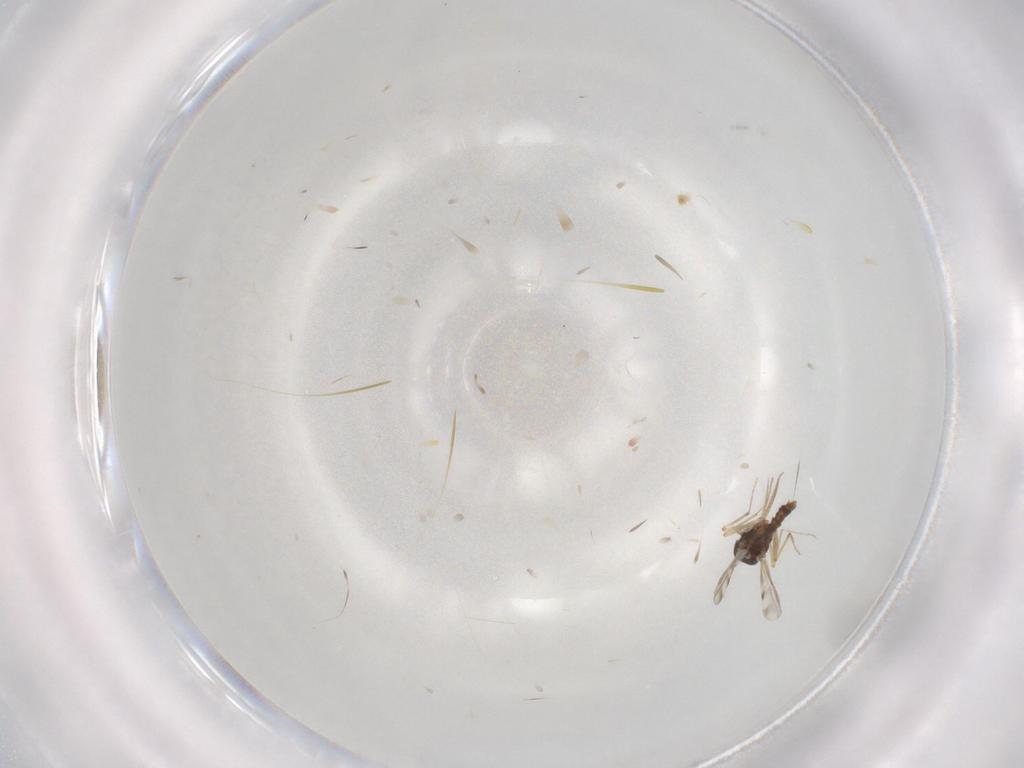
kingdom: Animalia
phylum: Arthropoda
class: Insecta
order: Diptera
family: Ceratopogonidae
